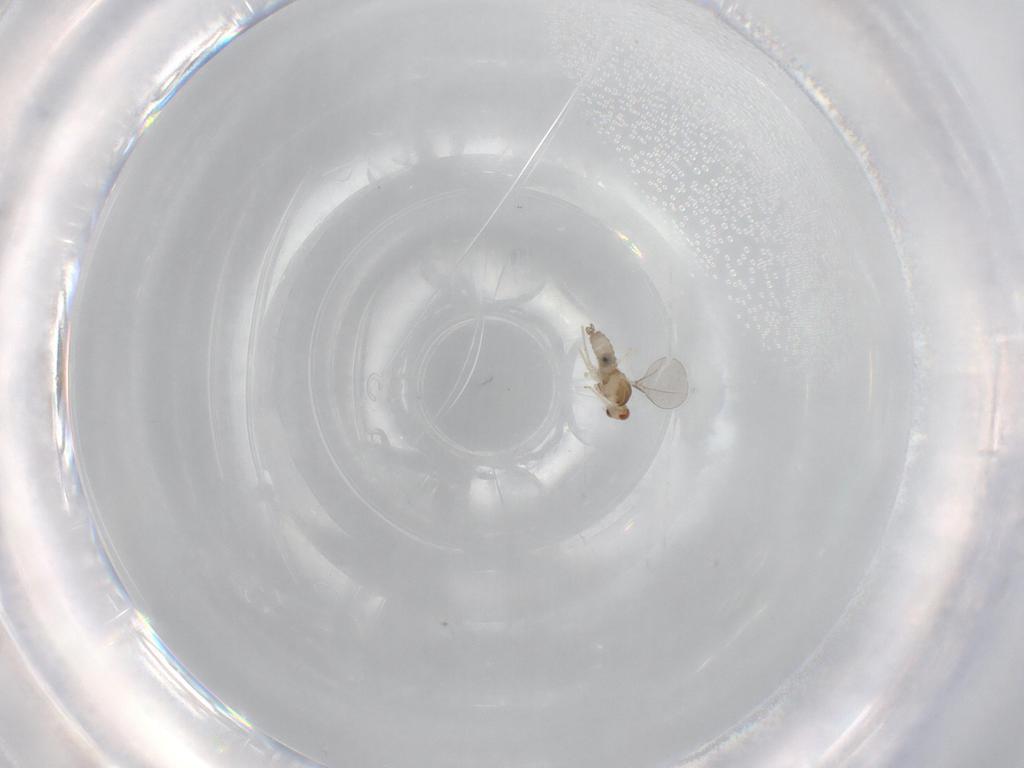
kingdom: Animalia
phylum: Arthropoda
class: Insecta
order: Diptera
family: Cecidomyiidae
